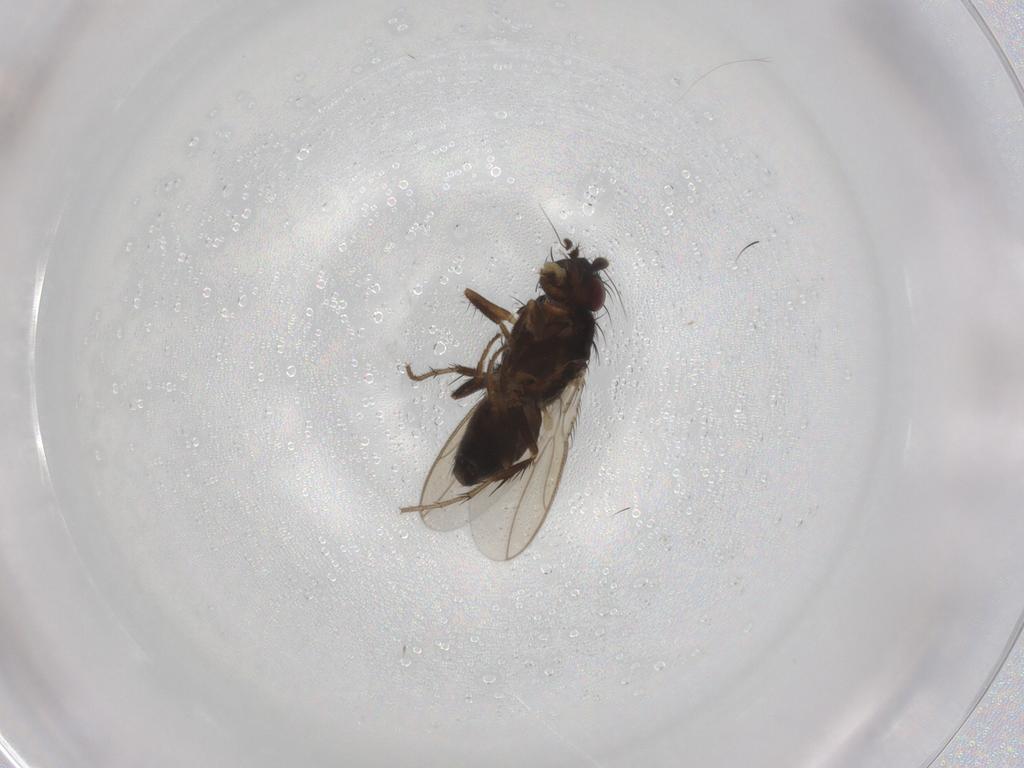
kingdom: Animalia
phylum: Arthropoda
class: Insecta
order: Diptera
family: Sphaeroceridae
